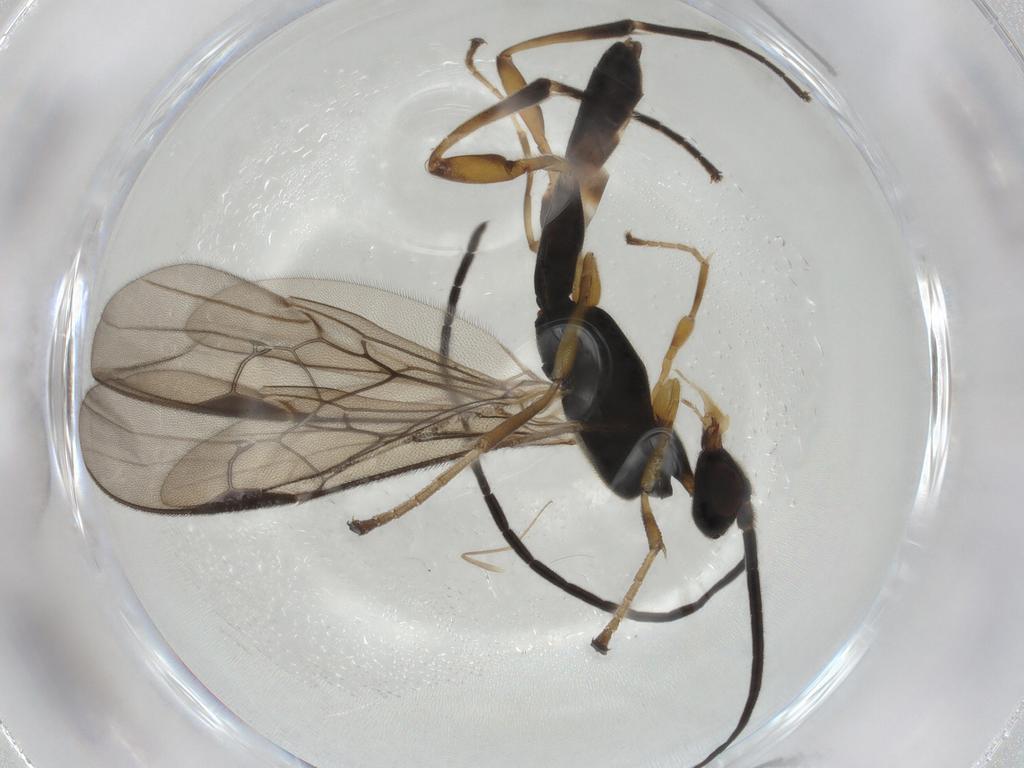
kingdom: Animalia
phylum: Arthropoda
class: Insecta
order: Hymenoptera
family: Braconidae
